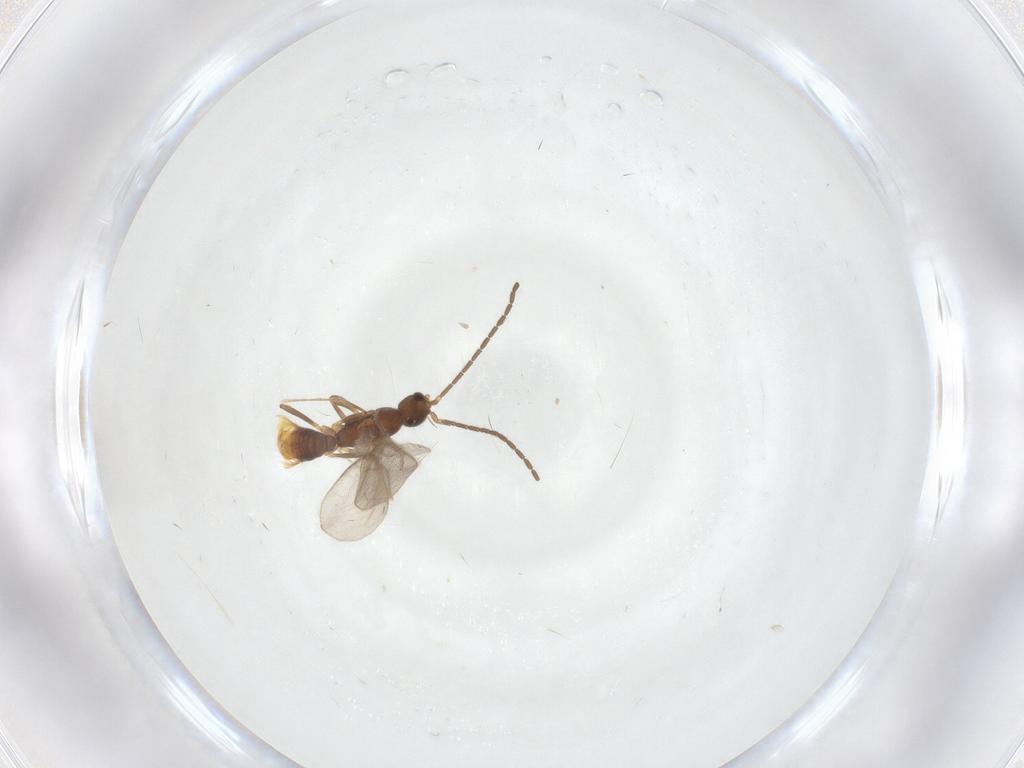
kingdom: Animalia
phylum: Arthropoda
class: Insecta
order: Hymenoptera
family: Formicidae
